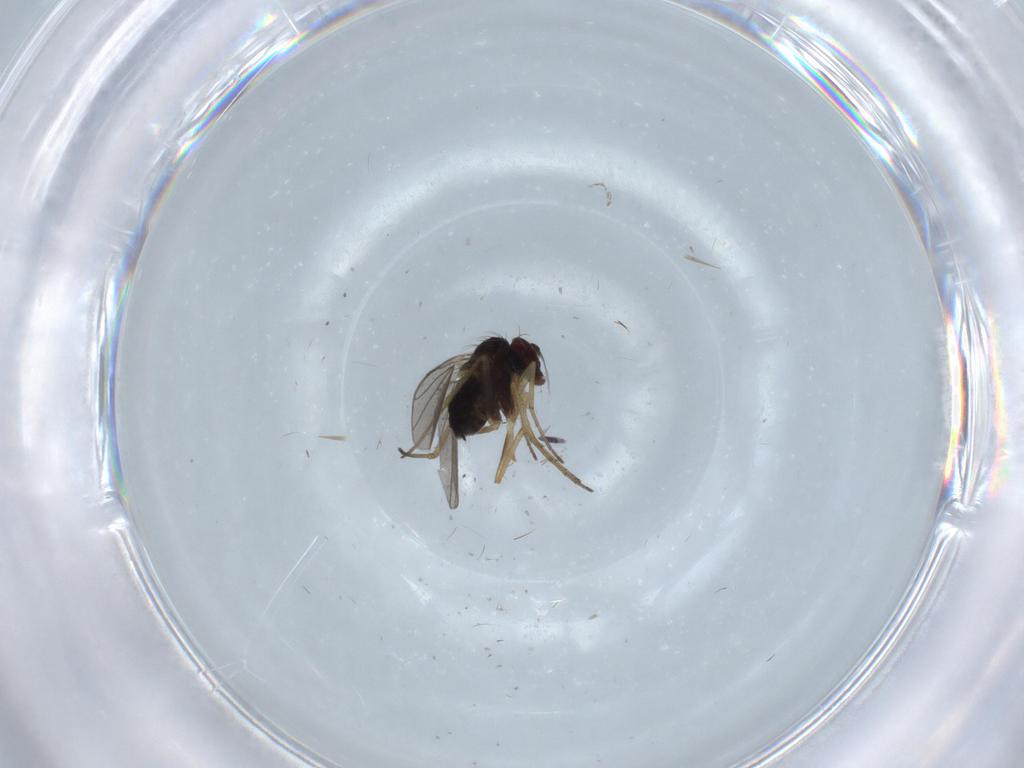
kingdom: Animalia
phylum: Arthropoda
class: Insecta
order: Diptera
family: Dolichopodidae
